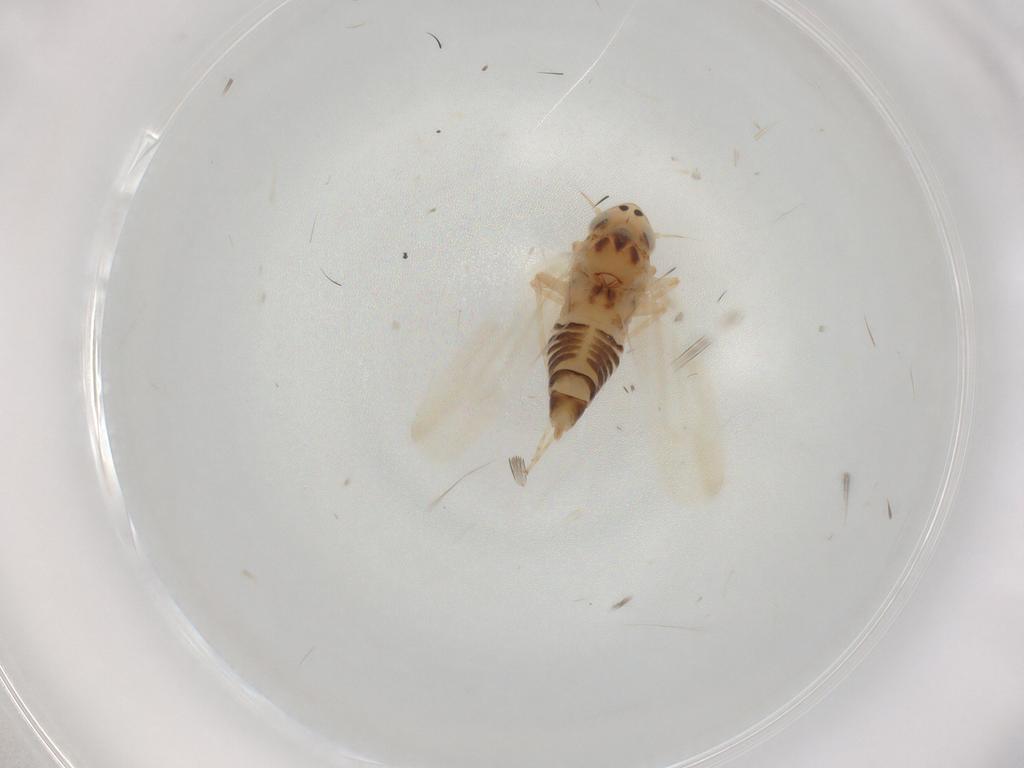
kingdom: Animalia
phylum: Arthropoda
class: Insecta
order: Hemiptera
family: Cicadellidae
